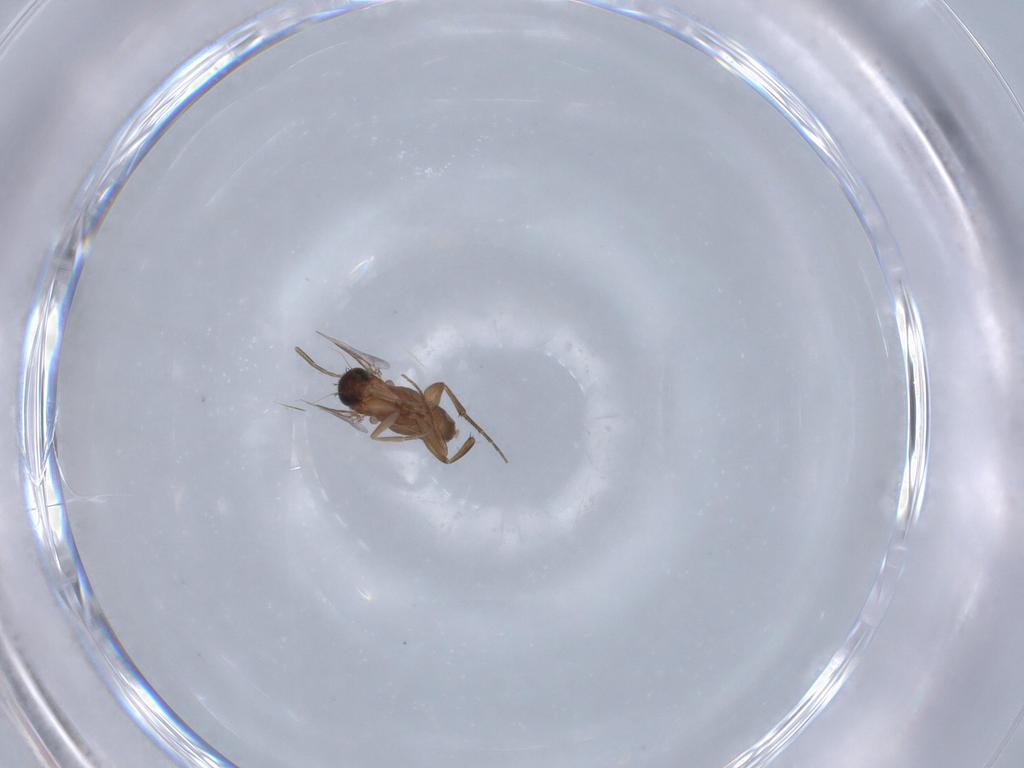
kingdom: Animalia
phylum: Arthropoda
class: Insecta
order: Diptera
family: Phoridae
